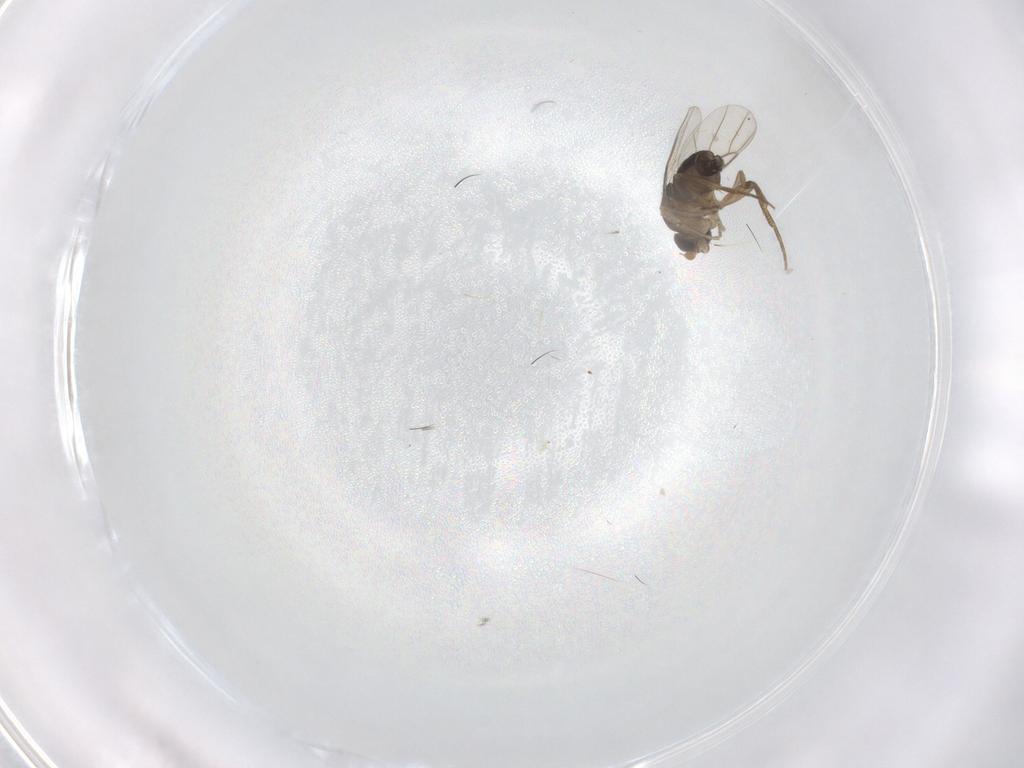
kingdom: Animalia
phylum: Arthropoda
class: Insecta
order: Diptera
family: Phoridae
